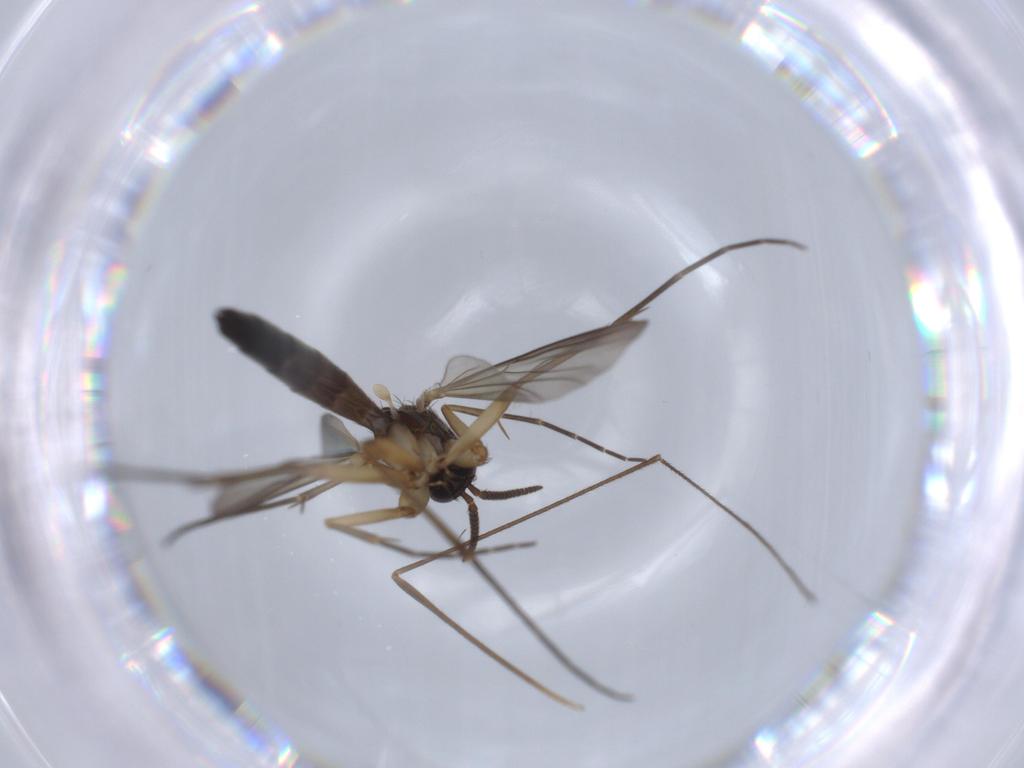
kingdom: Animalia
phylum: Arthropoda
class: Insecta
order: Diptera
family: Mycetophilidae
